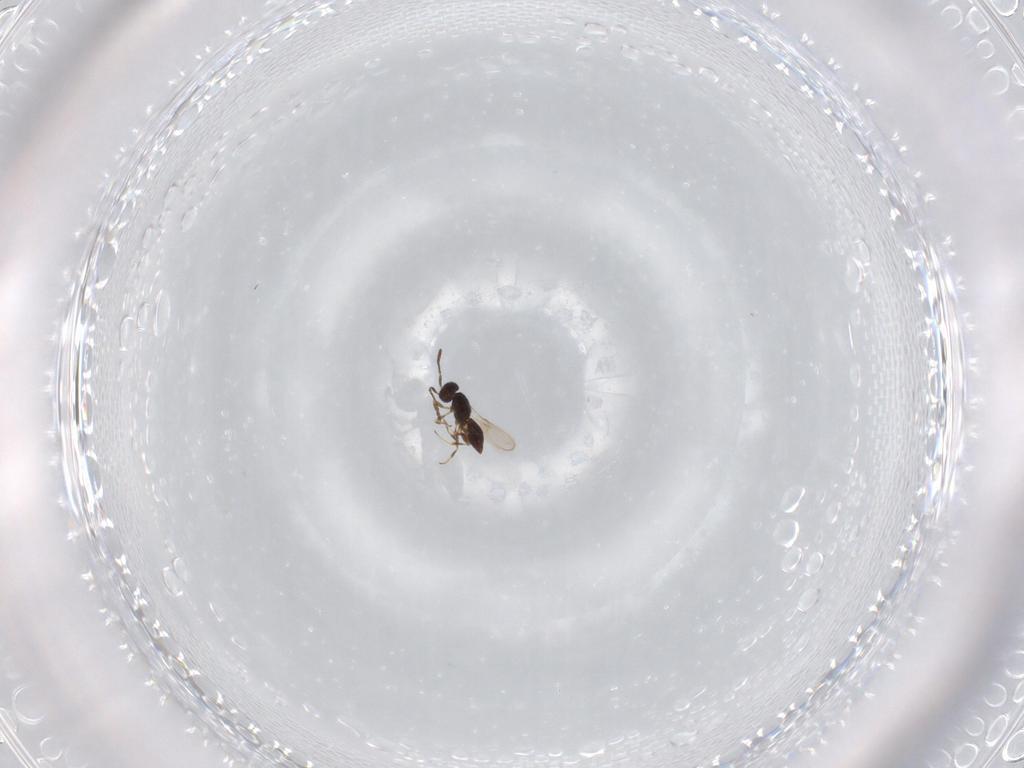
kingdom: Animalia
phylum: Arthropoda
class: Insecta
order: Hymenoptera
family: Scelionidae
